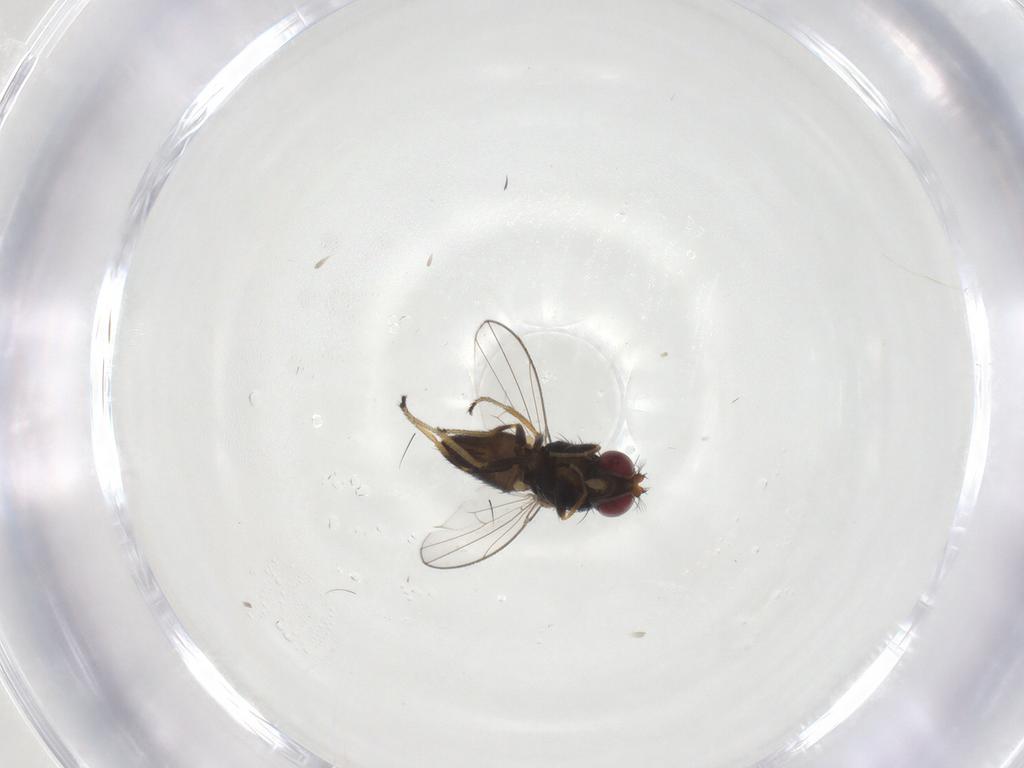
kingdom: Animalia
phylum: Arthropoda
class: Insecta
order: Diptera
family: Ephydridae
